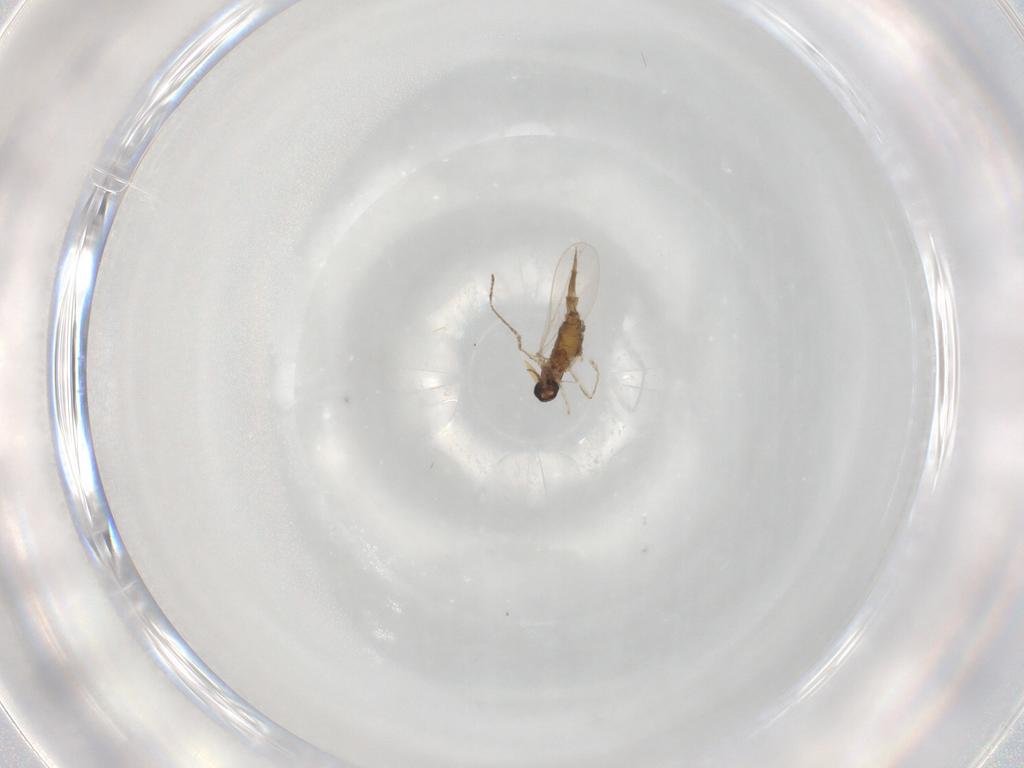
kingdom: Animalia
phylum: Arthropoda
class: Insecta
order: Diptera
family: Cecidomyiidae
